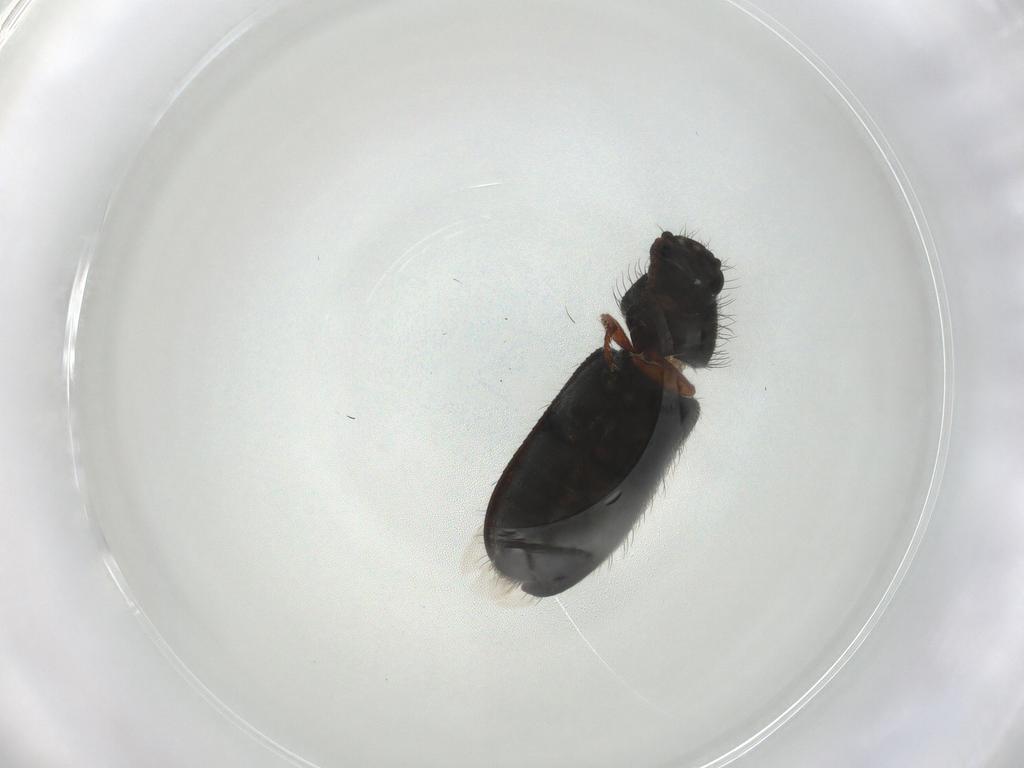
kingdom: Animalia
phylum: Arthropoda
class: Insecta
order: Coleoptera
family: Melyridae
